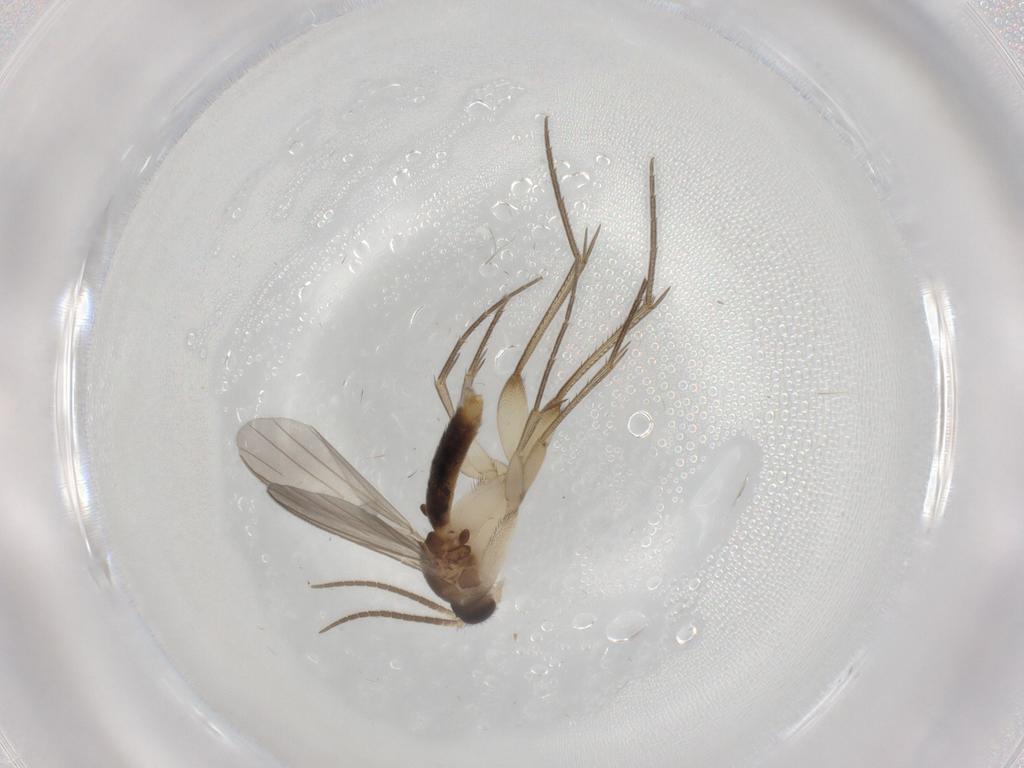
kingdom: Animalia
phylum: Arthropoda
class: Insecta
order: Diptera
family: Mycetophilidae
